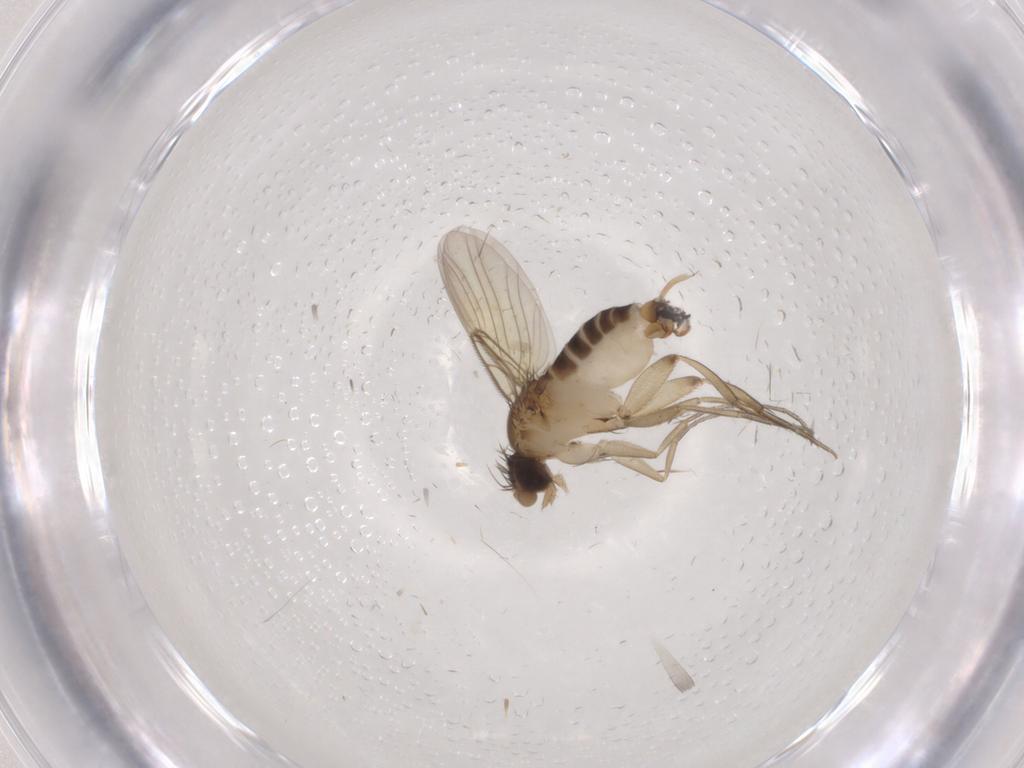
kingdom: Animalia
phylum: Arthropoda
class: Insecta
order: Diptera
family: Phoridae
